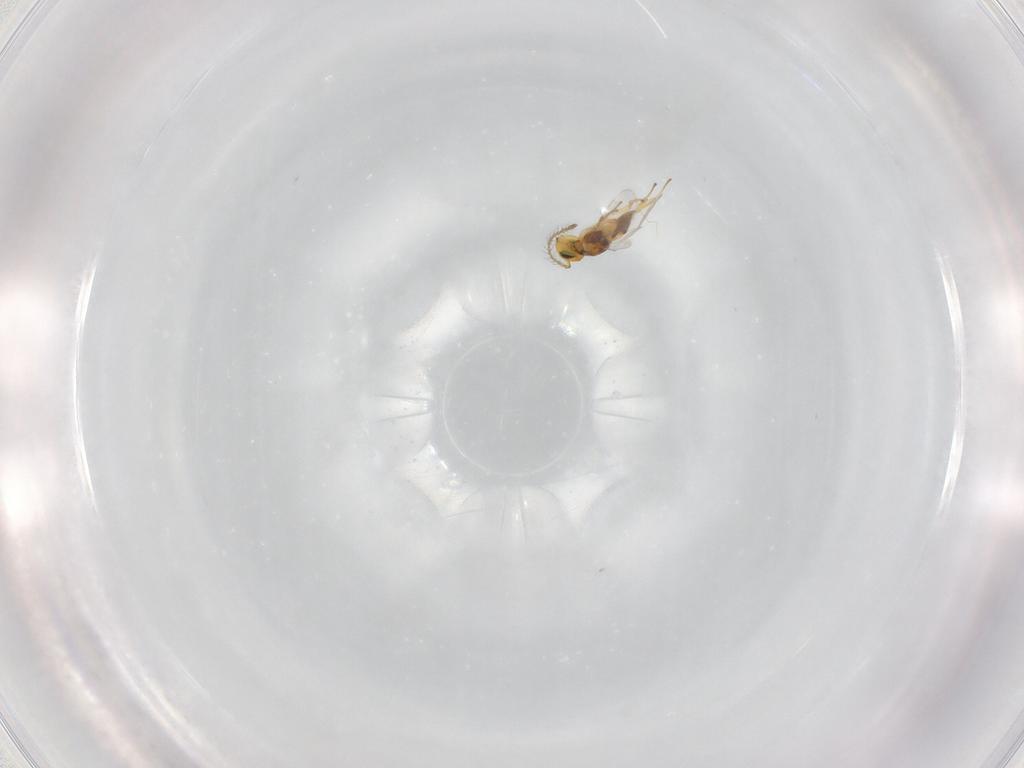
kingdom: Animalia
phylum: Arthropoda
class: Insecta
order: Hymenoptera
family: Encyrtidae
